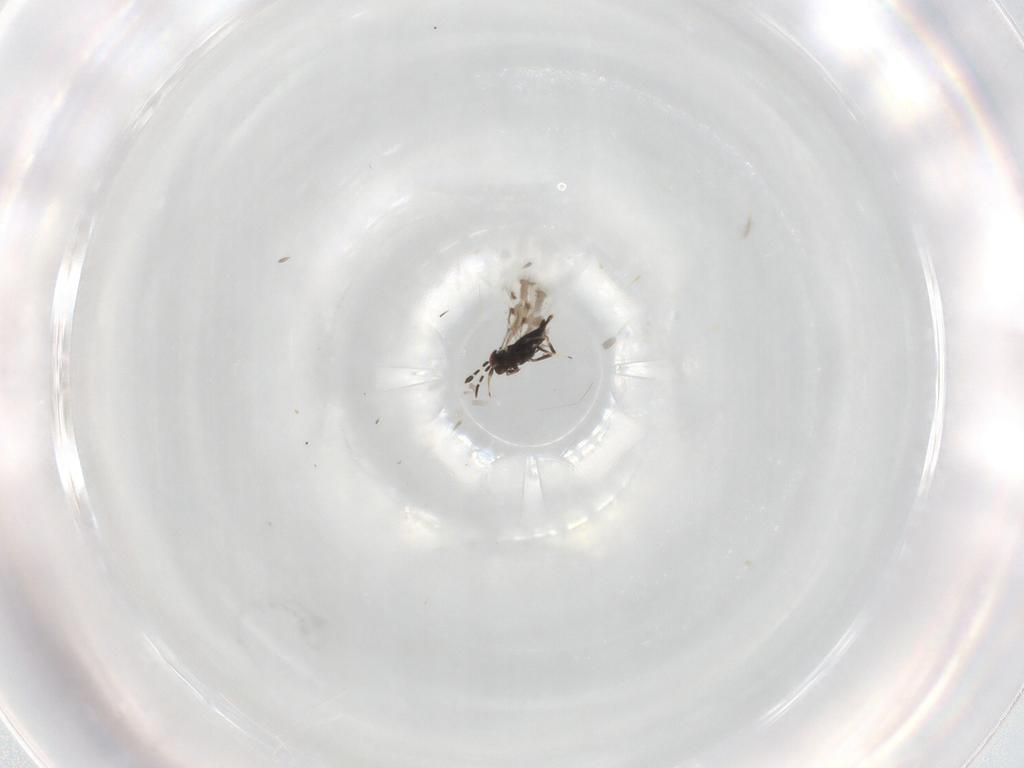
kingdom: Animalia
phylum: Arthropoda
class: Insecta
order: Hymenoptera
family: Azotidae
